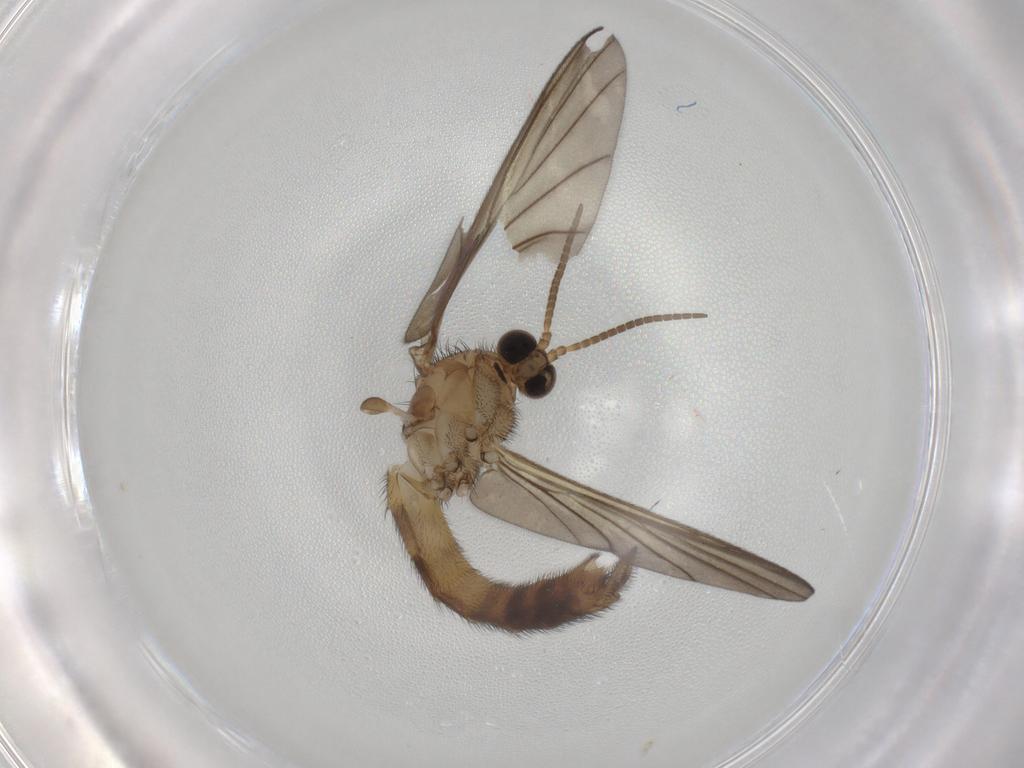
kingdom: Animalia
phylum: Arthropoda
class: Insecta
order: Diptera
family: Keroplatidae
